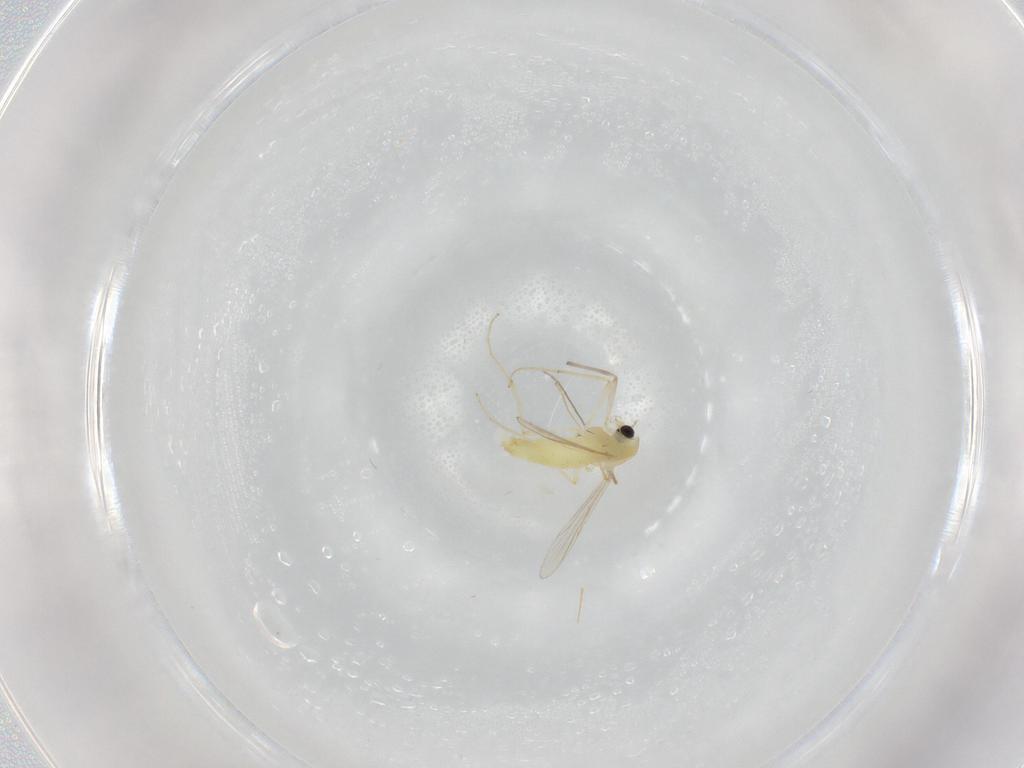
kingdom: Animalia
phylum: Arthropoda
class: Insecta
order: Diptera
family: Chironomidae
